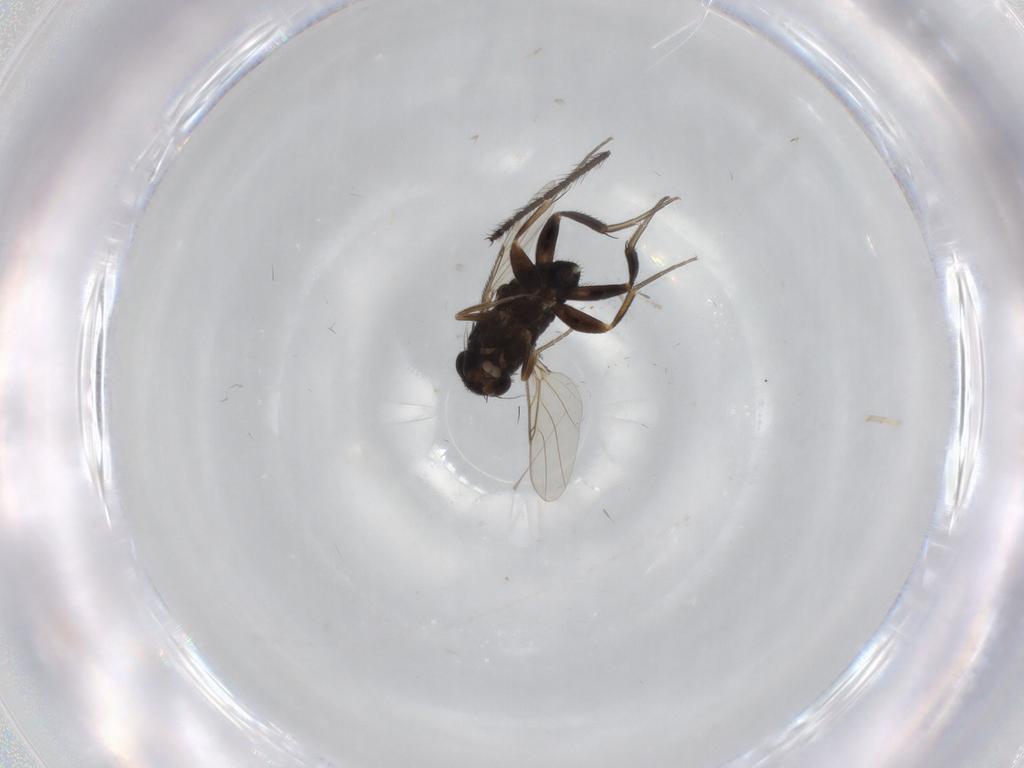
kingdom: Animalia
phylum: Arthropoda
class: Insecta
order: Diptera
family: Phoridae
